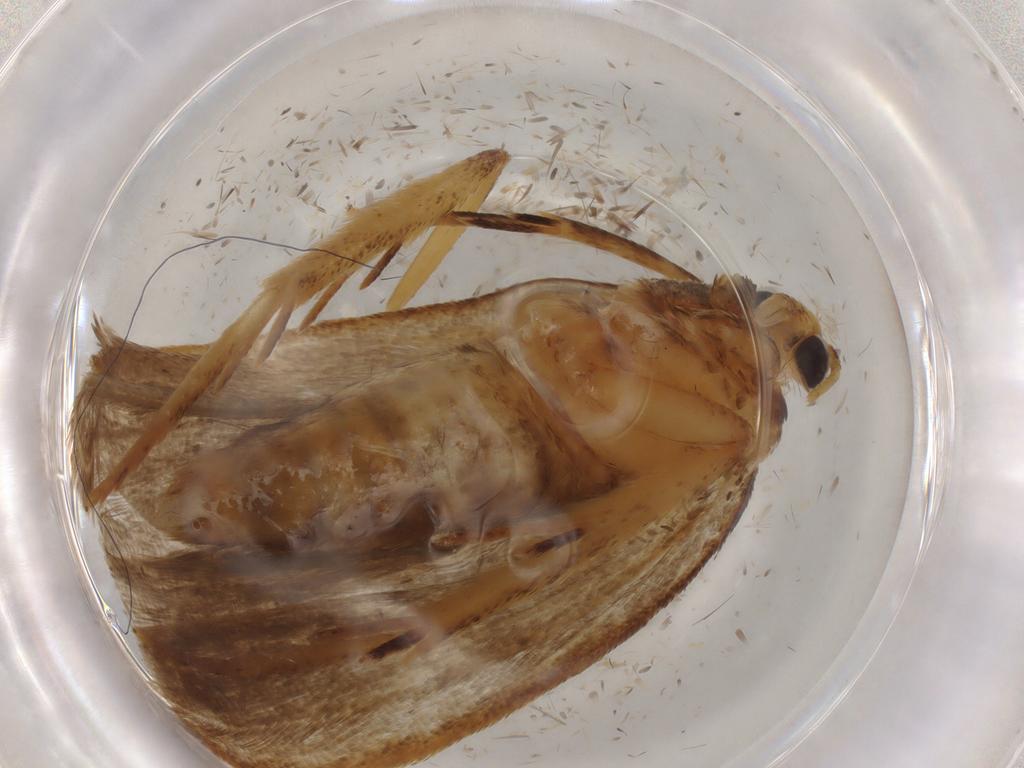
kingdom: Animalia
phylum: Arthropoda
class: Insecta
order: Lepidoptera
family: Gelechiidae
